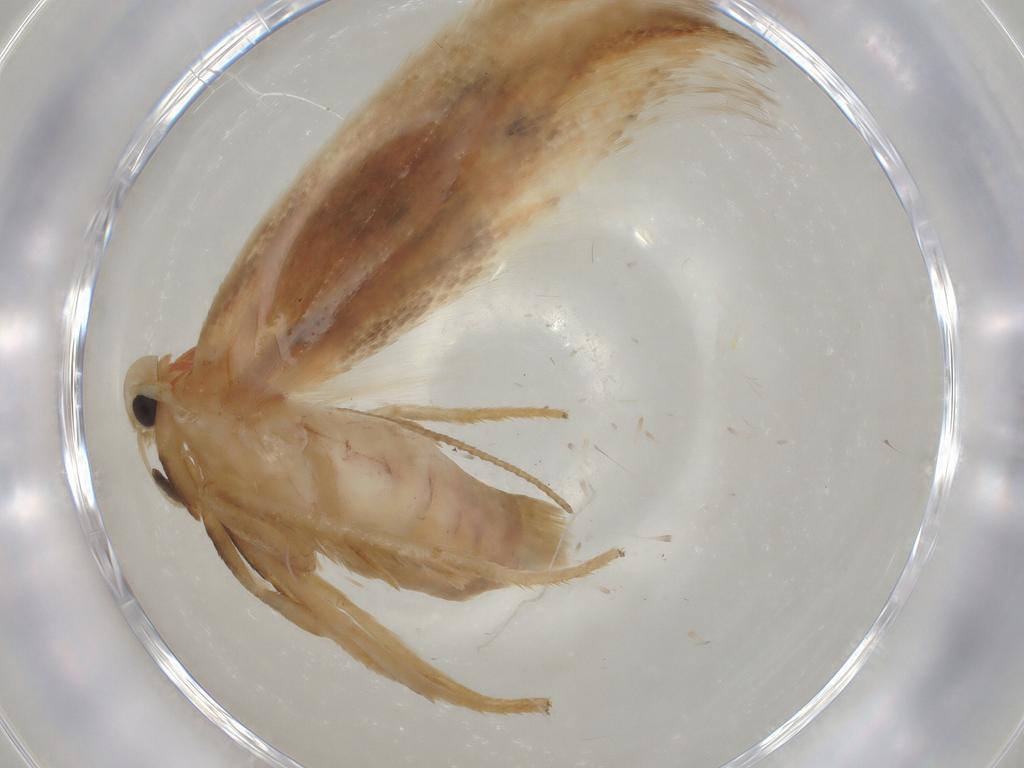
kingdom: Animalia
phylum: Arthropoda
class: Insecta
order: Lepidoptera
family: Geometridae
